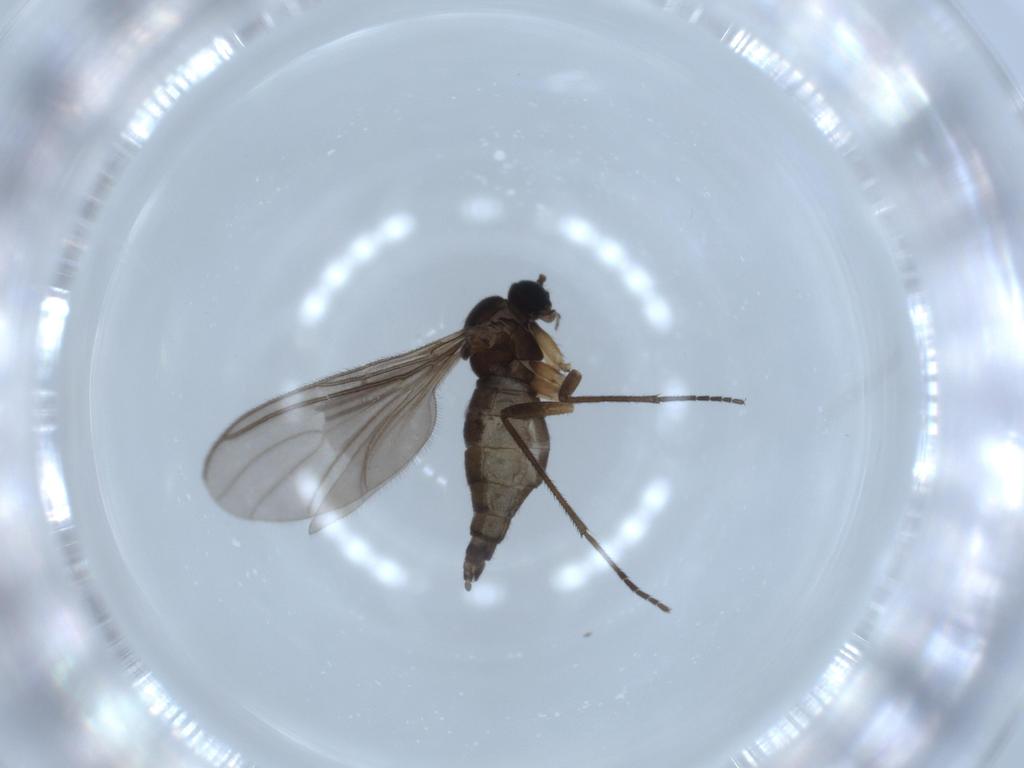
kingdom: Animalia
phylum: Arthropoda
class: Insecta
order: Diptera
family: Sciaridae
